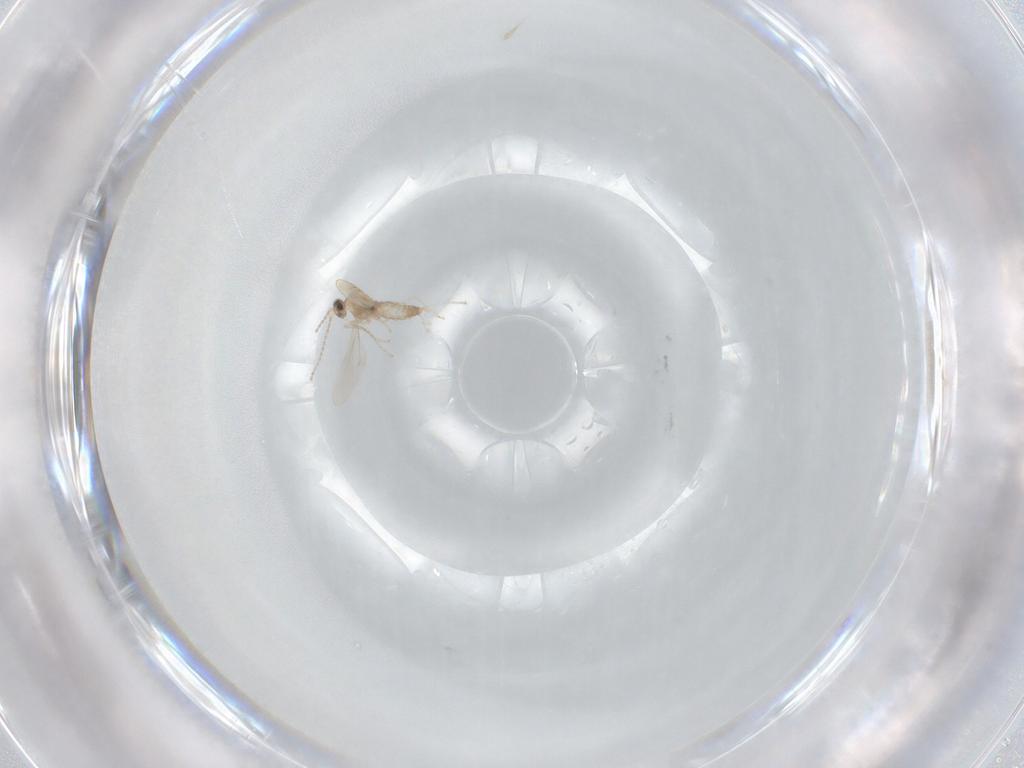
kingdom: Animalia
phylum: Arthropoda
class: Insecta
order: Diptera
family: Cecidomyiidae
